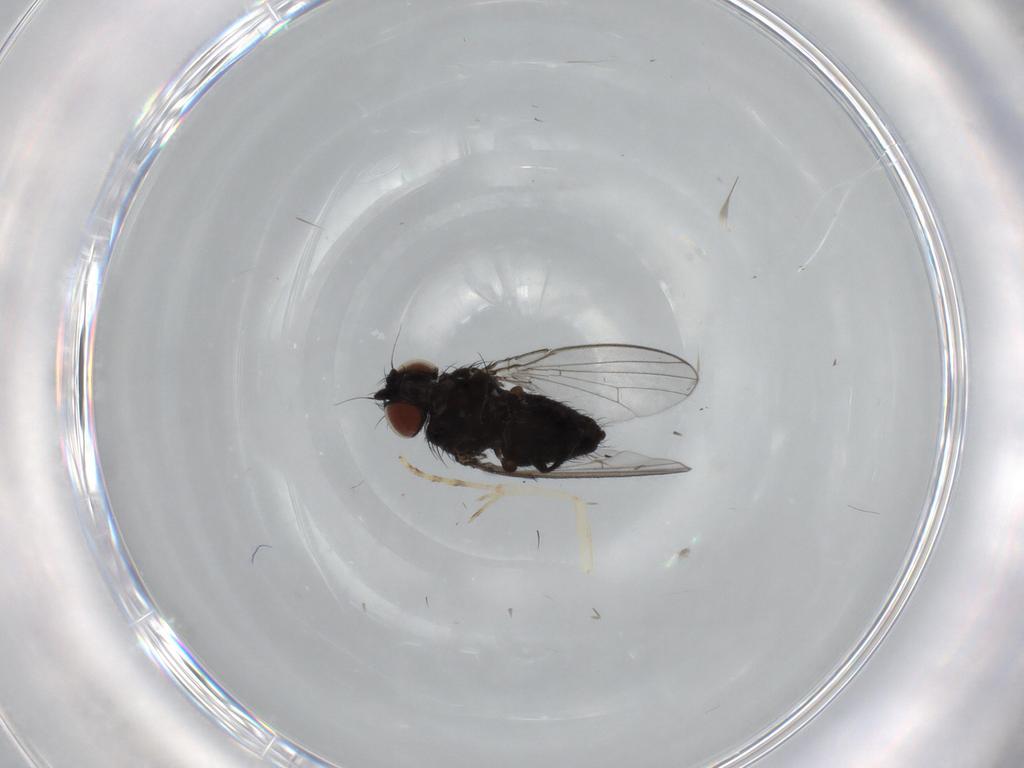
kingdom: Animalia
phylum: Arthropoda
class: Insecta
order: Diptera
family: Milichiidae
